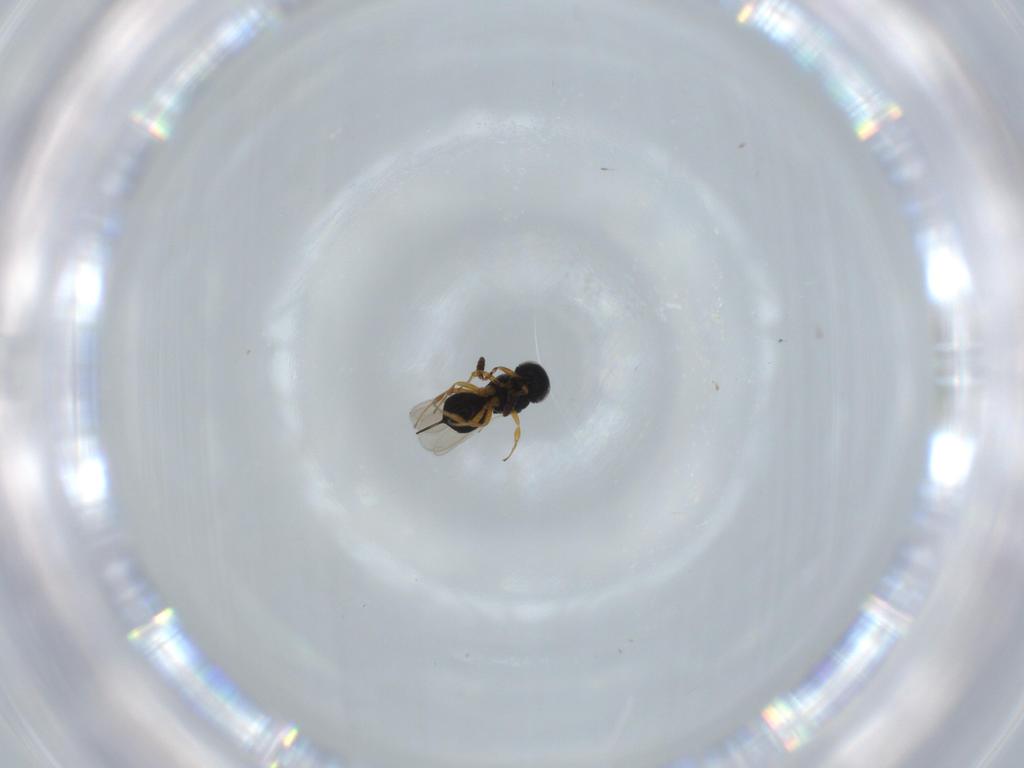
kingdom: Animalia
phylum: Arthropoda
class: Insecta
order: Hymenoptera
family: Scelionidae
